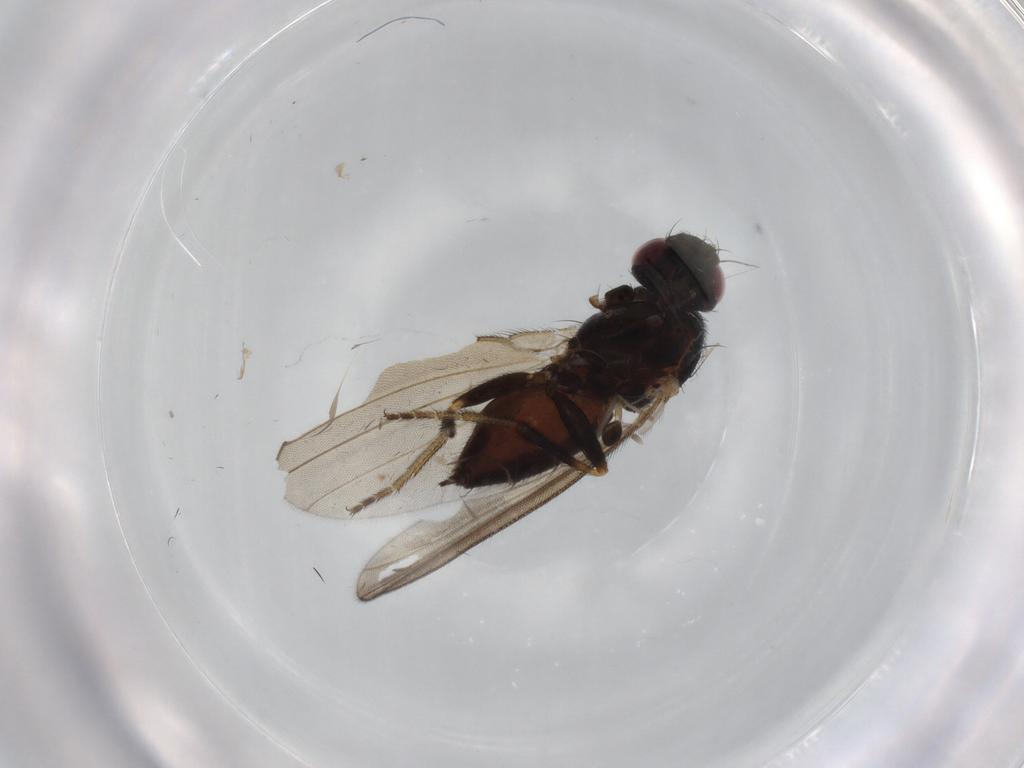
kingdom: Animalia
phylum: Arthropoda
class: Insecta
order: Diptera
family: Milichiidae
